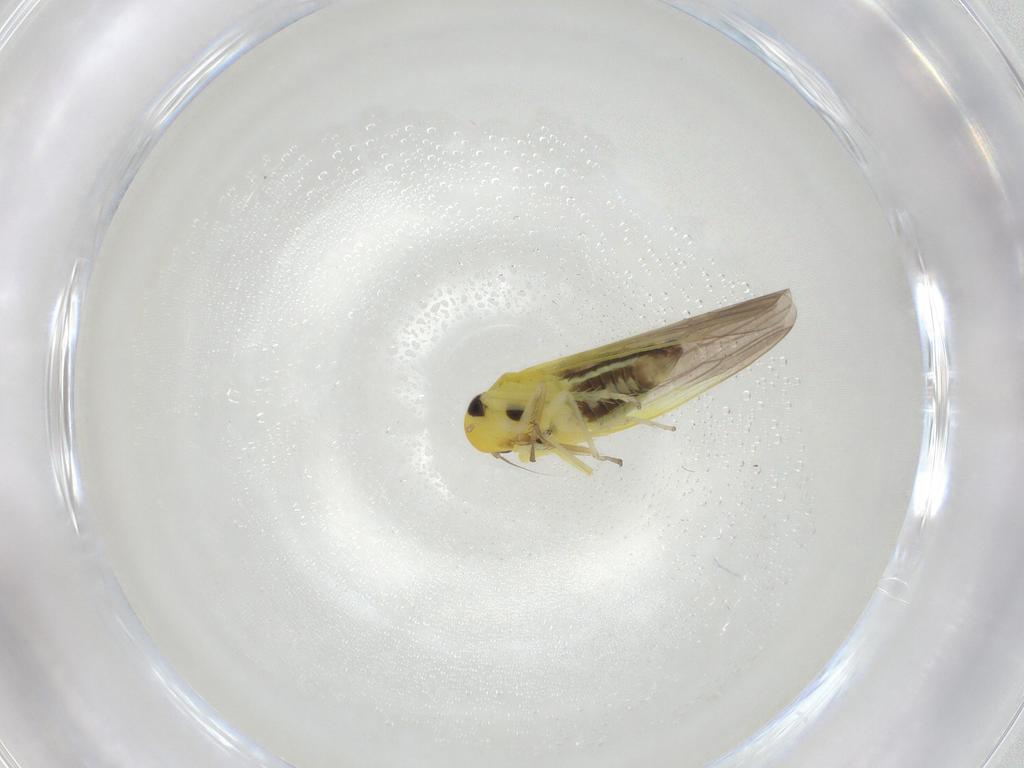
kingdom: Animalia
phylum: Arthropoda
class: Insecta
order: Hemiptera
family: Cicadellidae
